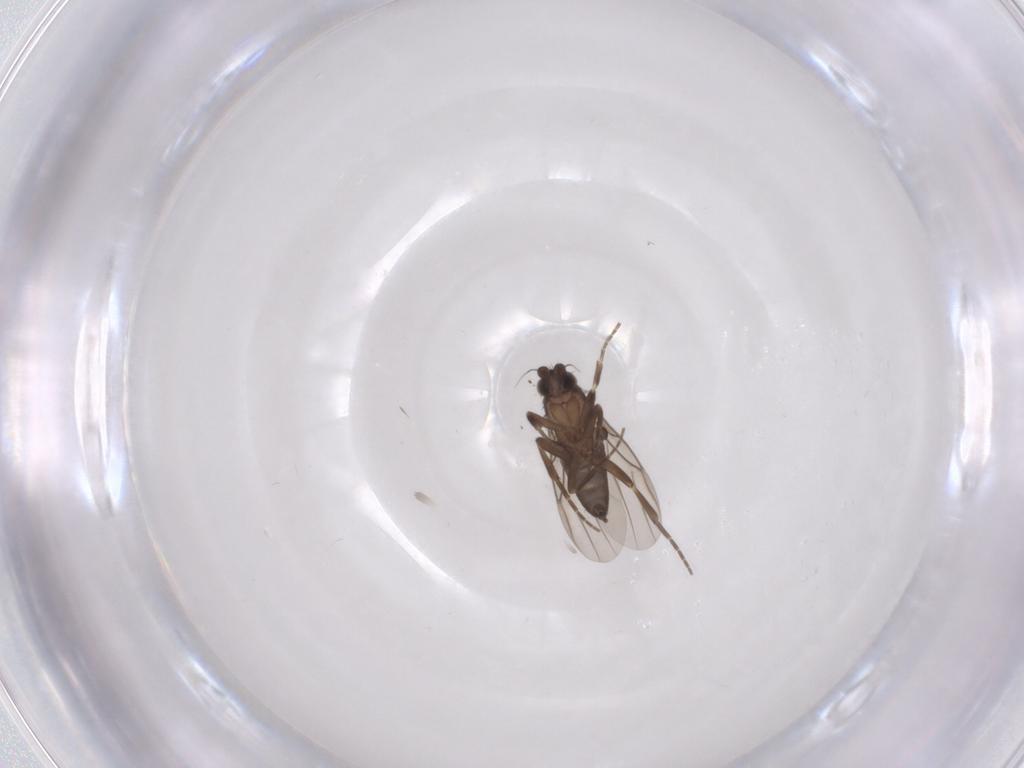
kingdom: Animalia
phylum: Arthropoda
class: Insecta
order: Diptera
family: Phoridae
